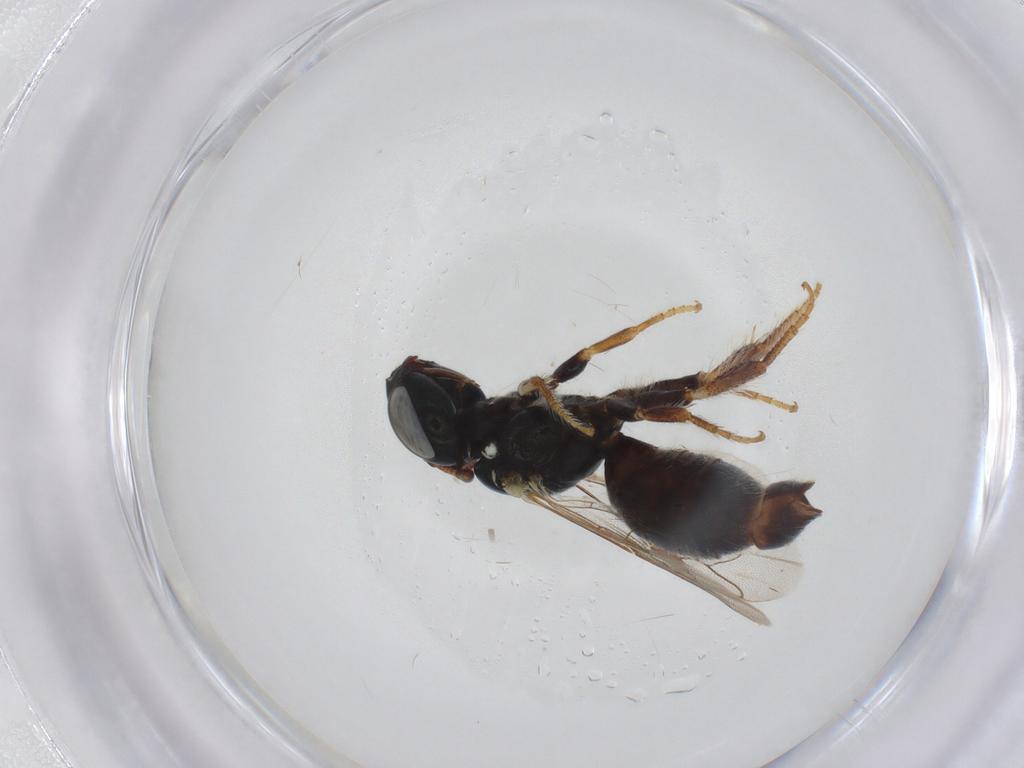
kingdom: Animalia
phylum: Arthropoda
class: Insecta
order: Hymenoptera
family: Apidae
